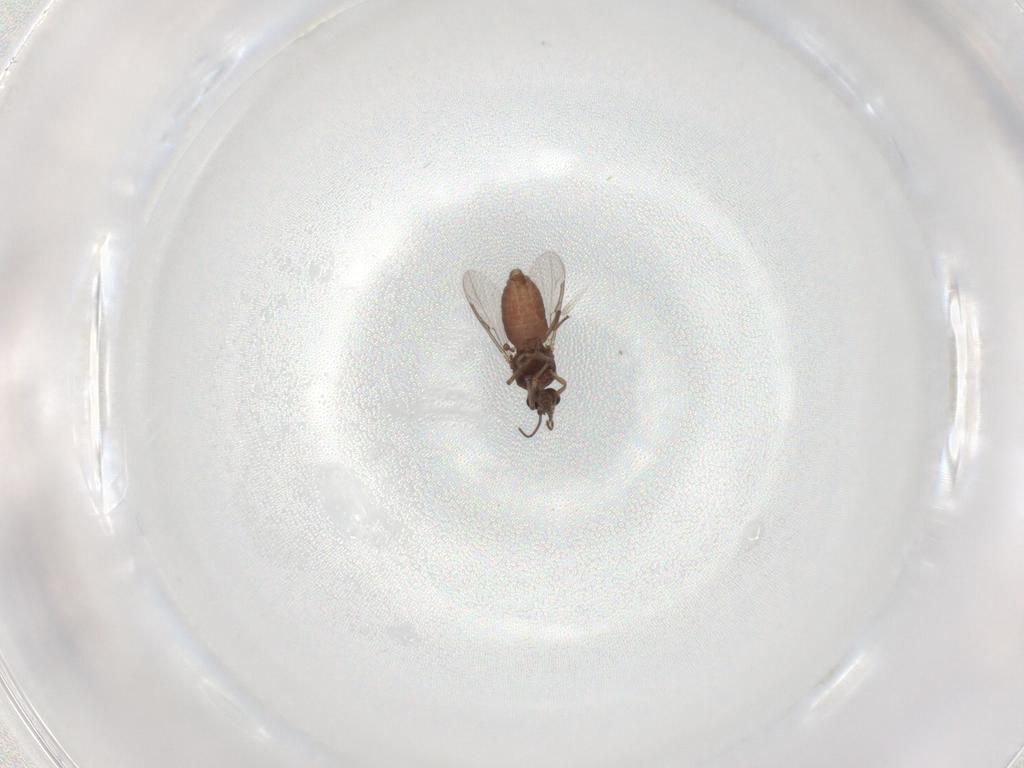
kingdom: Animalia
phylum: Arthropoda
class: Insecta
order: Diptera
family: Ceratopogonidae
